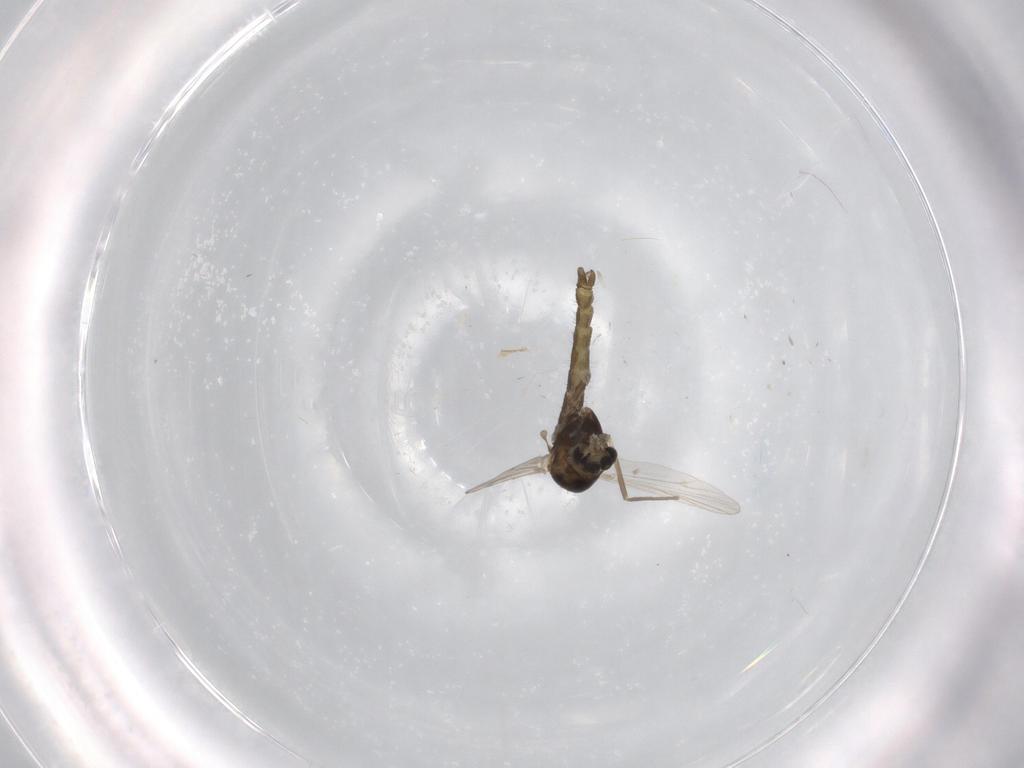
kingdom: Animalia
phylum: Arthropoda
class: Insecta
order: Diptera
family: Chironomidae
